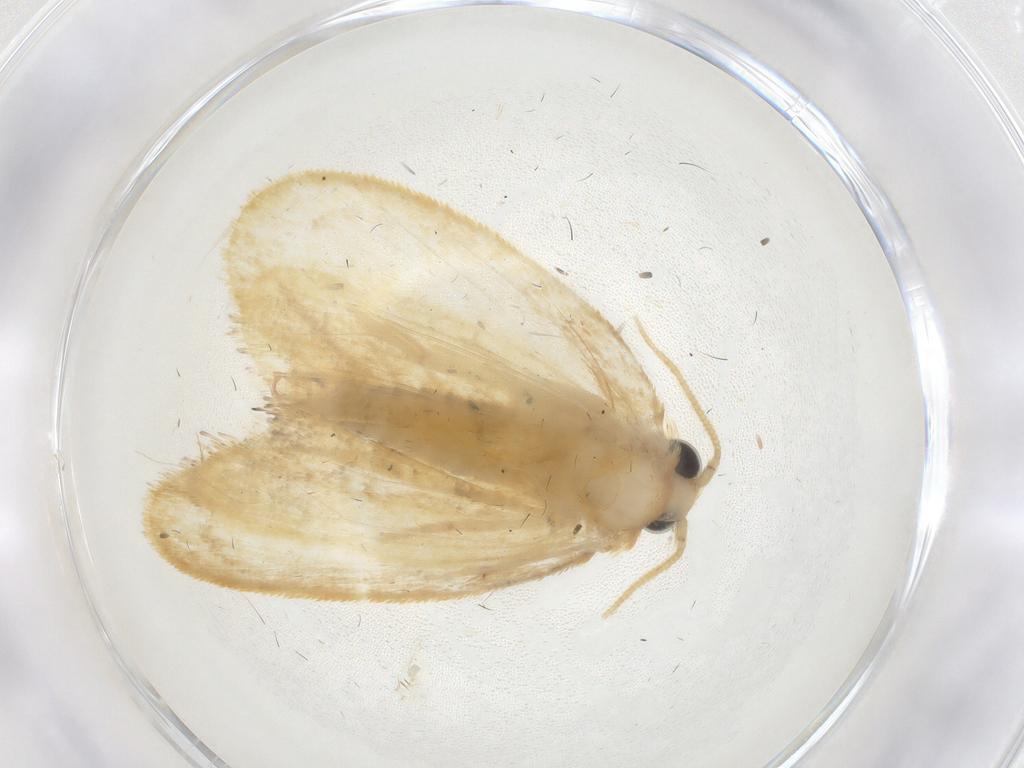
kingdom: Animalia
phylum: Arthropoda
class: Insecta
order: Lepidoptera
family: Psychidae
